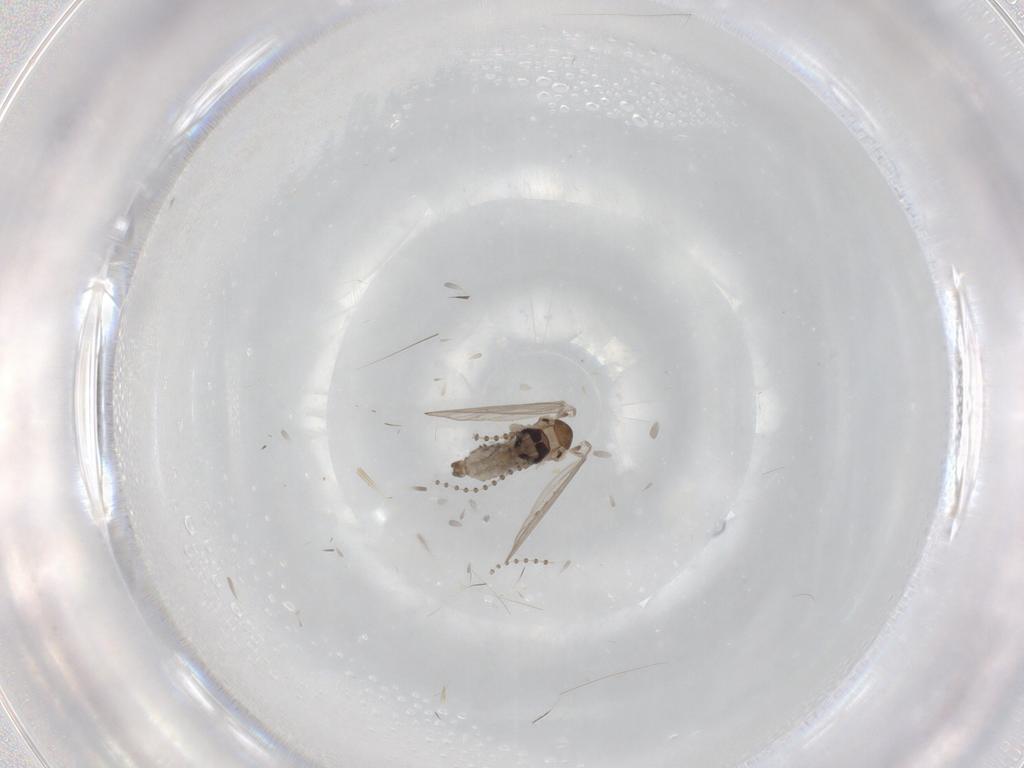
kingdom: Animalia
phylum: Arthropoda
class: Insecta
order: Diptera
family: Psychodidae
